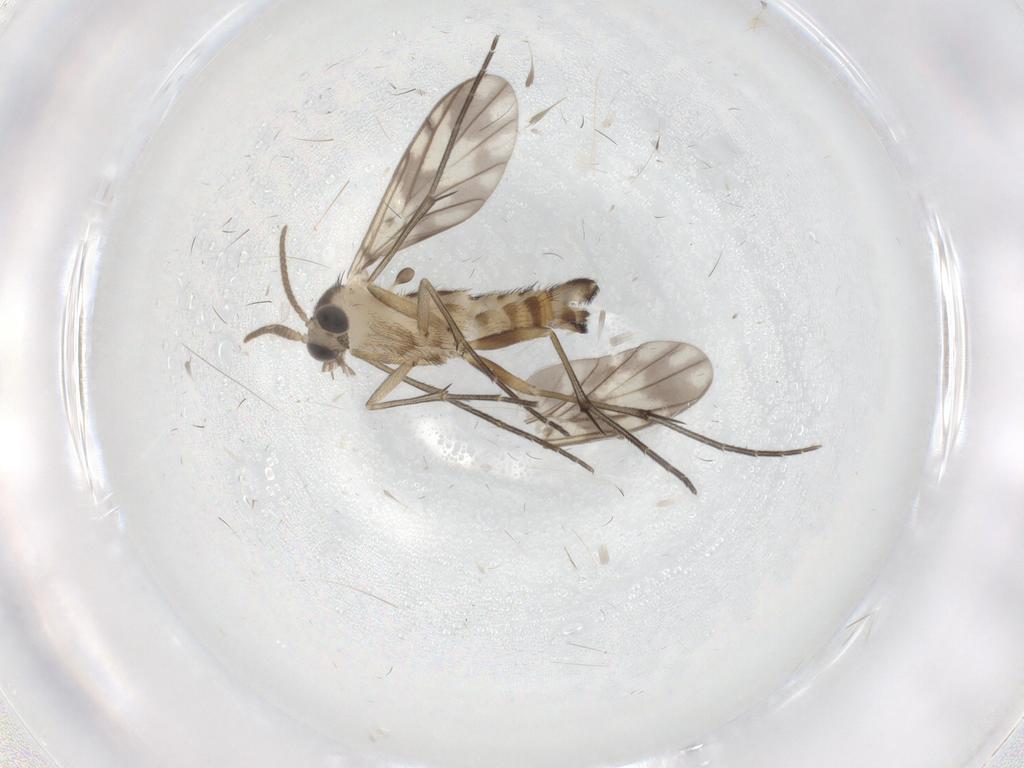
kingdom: Animalia
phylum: Arthropoda
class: Insecta
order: Diptera
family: Keroplatidae
